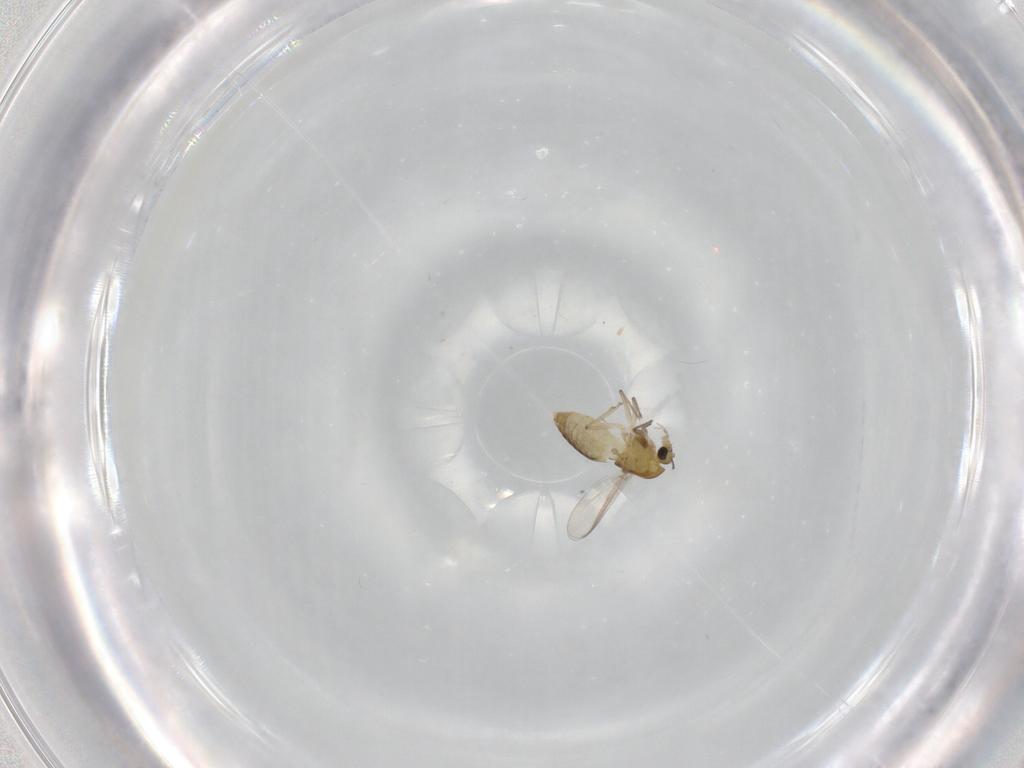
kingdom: Animalia
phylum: Arthropoda
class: Insecta
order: Diptera
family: Chironomidae
